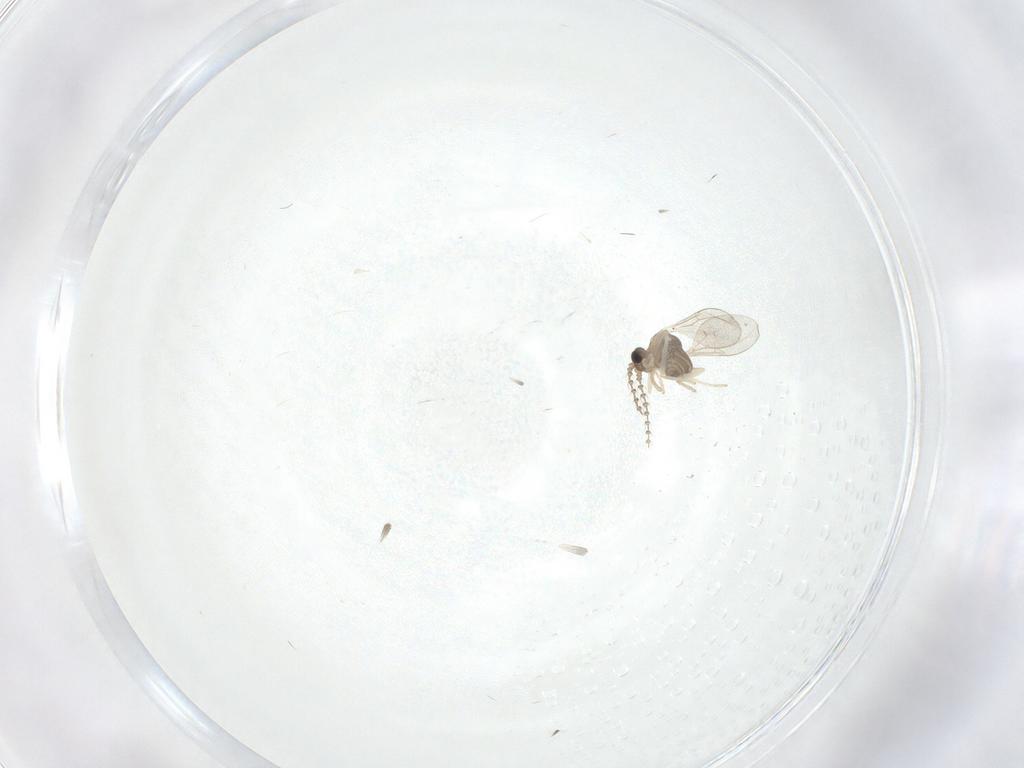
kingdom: Animalia
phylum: Arthropoda
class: Insecta
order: Diptera
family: Cecidomyiidae
